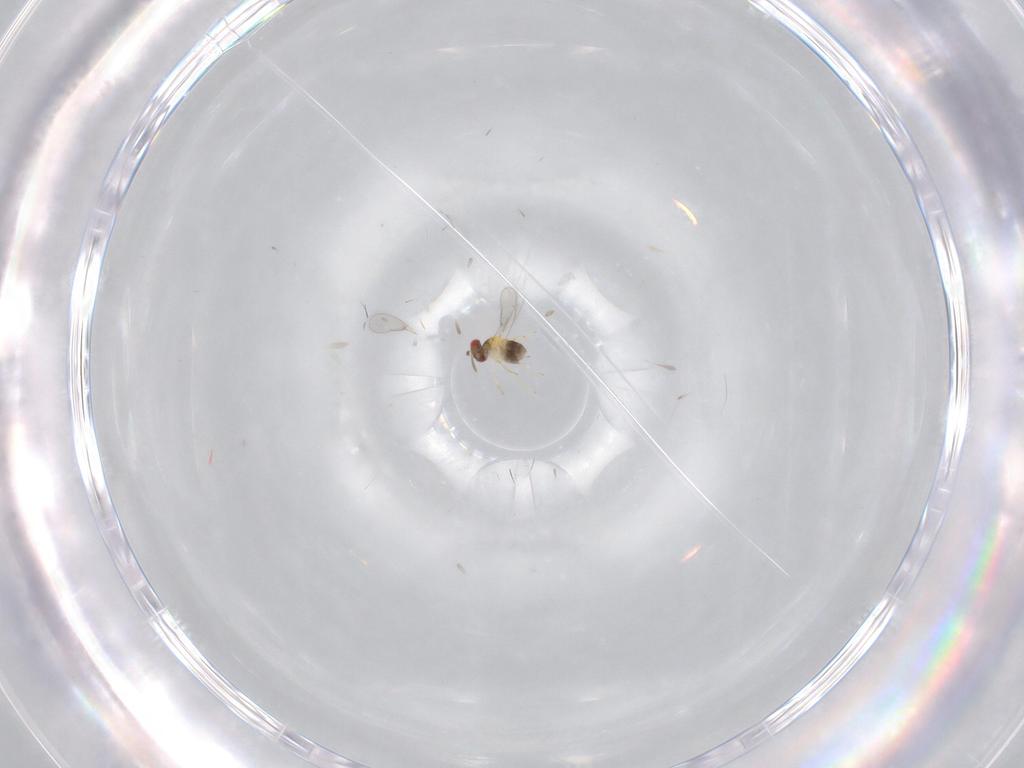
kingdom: Animalia
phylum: Arthropoda
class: Insecta
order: Hymenoptera
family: Aphelinidae
